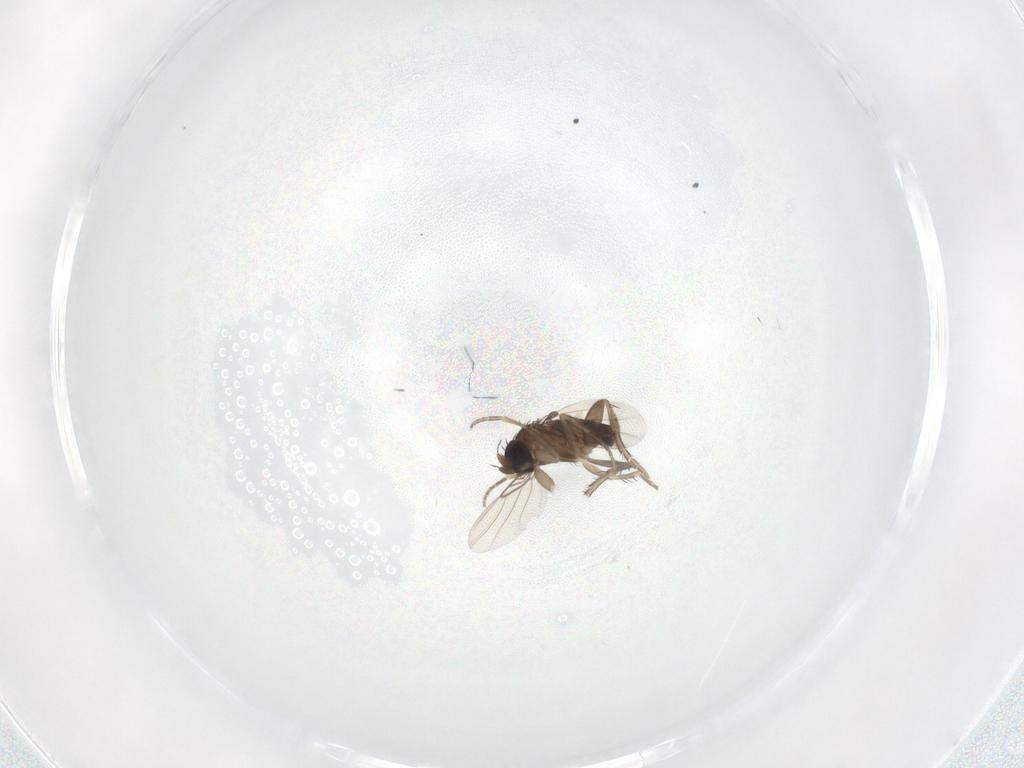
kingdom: Animalia
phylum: Arthropoda
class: Insecta
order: Diptera
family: Phoridae
